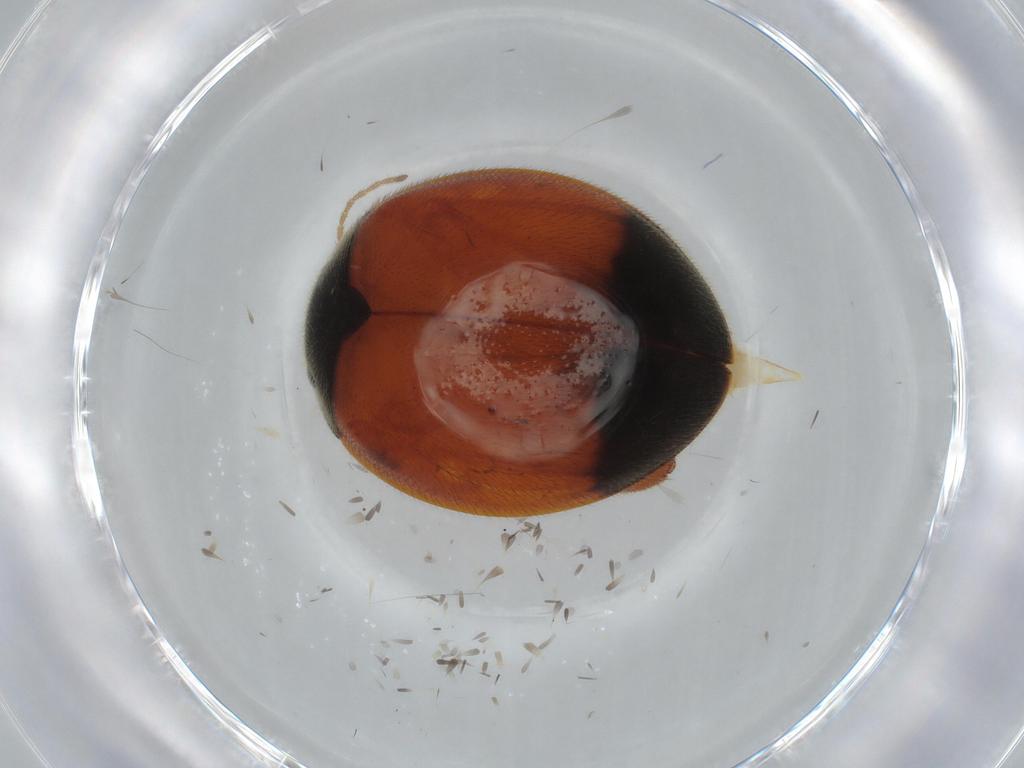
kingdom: Animalia
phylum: Arthropoda
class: Insecta
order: Coleoptera
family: Scirtidae
